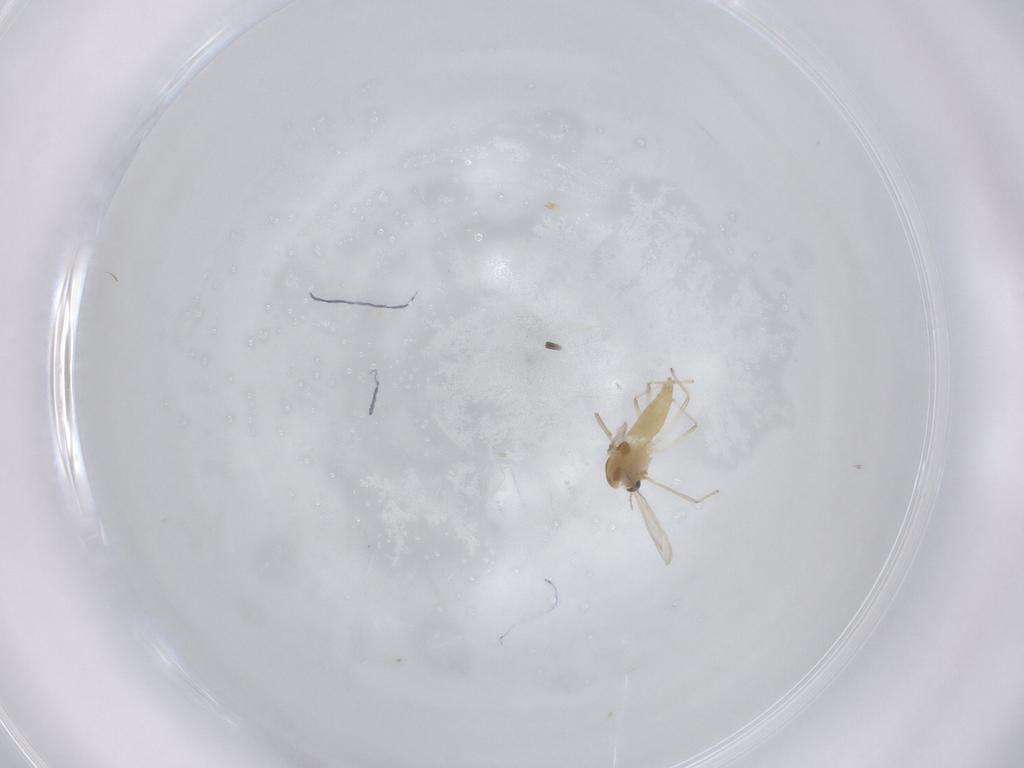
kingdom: Animalia
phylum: Arthropoda
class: Insecta
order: Diptera
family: Chironomidae
